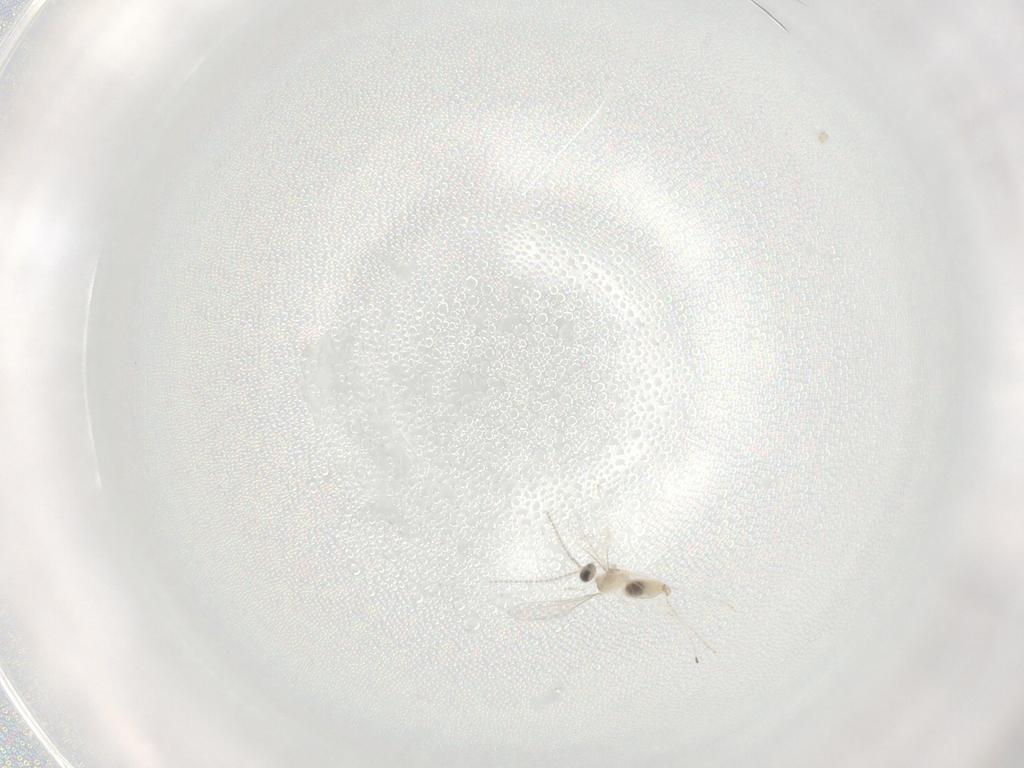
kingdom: Animalia
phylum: Arthropoda
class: Insecta
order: Diptera
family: Cecidomyiidae
